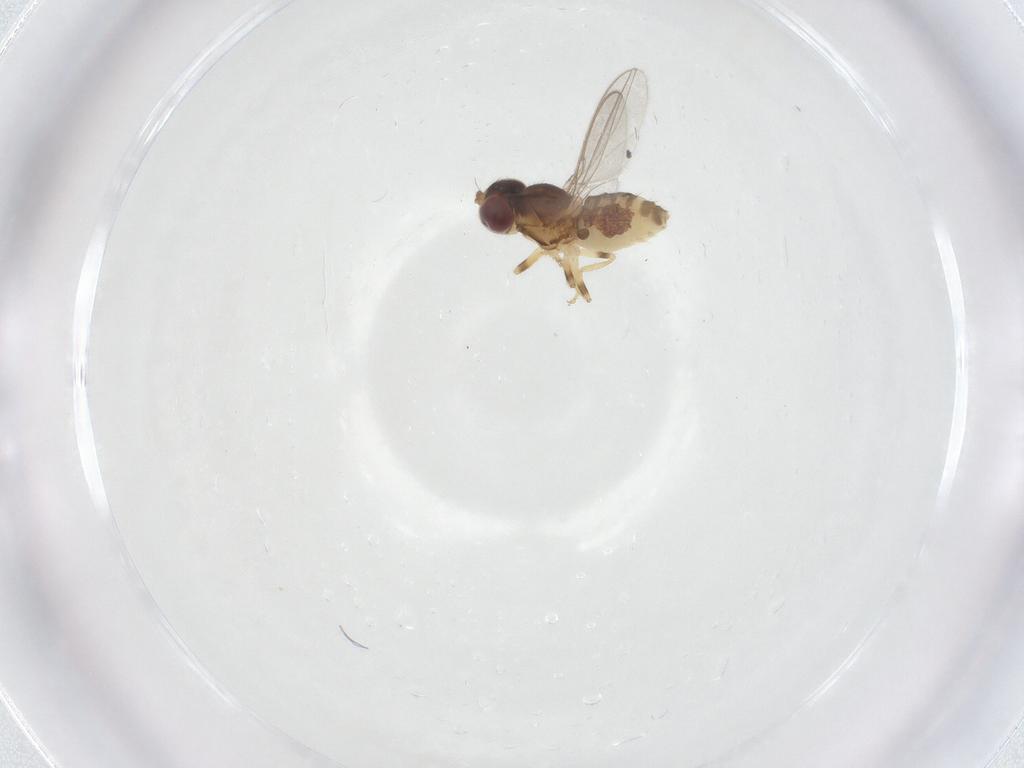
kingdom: Animalia
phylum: Arthropoda
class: Insecta
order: Diptera
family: Asteiidae
